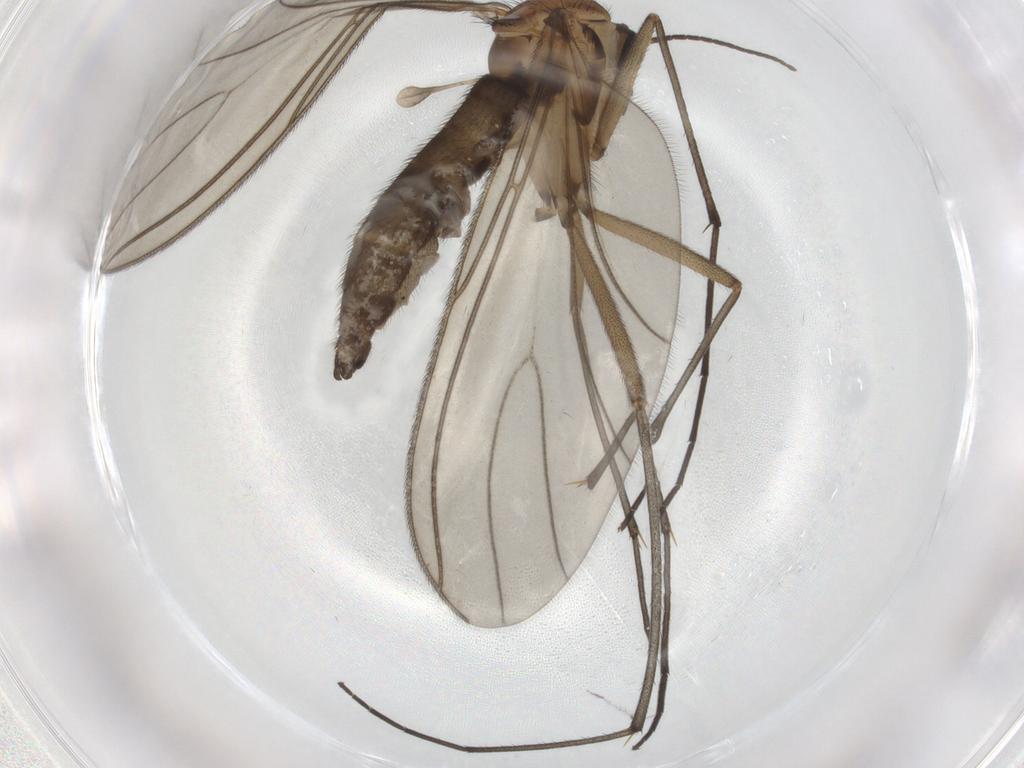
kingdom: Animalia
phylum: Arthropoda
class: Insecta
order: Diptera
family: Sciaridae
